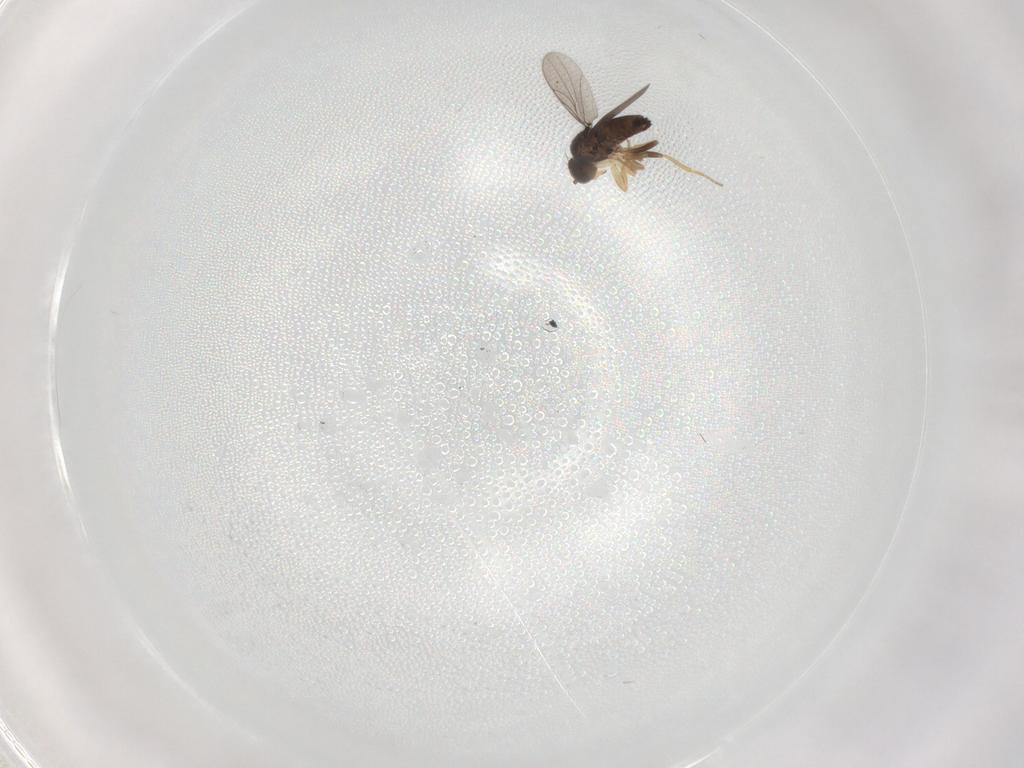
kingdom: Animalia
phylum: Arthropoda
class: Insecta
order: Diptera
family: Hybotidae
